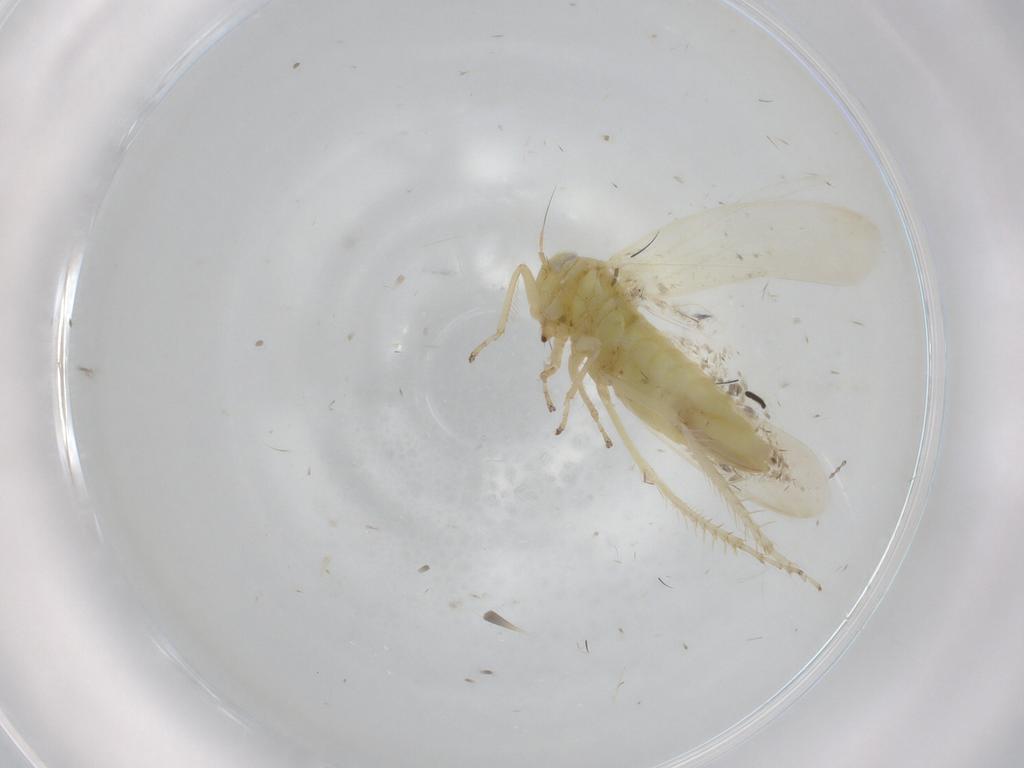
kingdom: Animalia
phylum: Arthropoda
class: Insecta
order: Hemiptera
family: Cicadellidae
